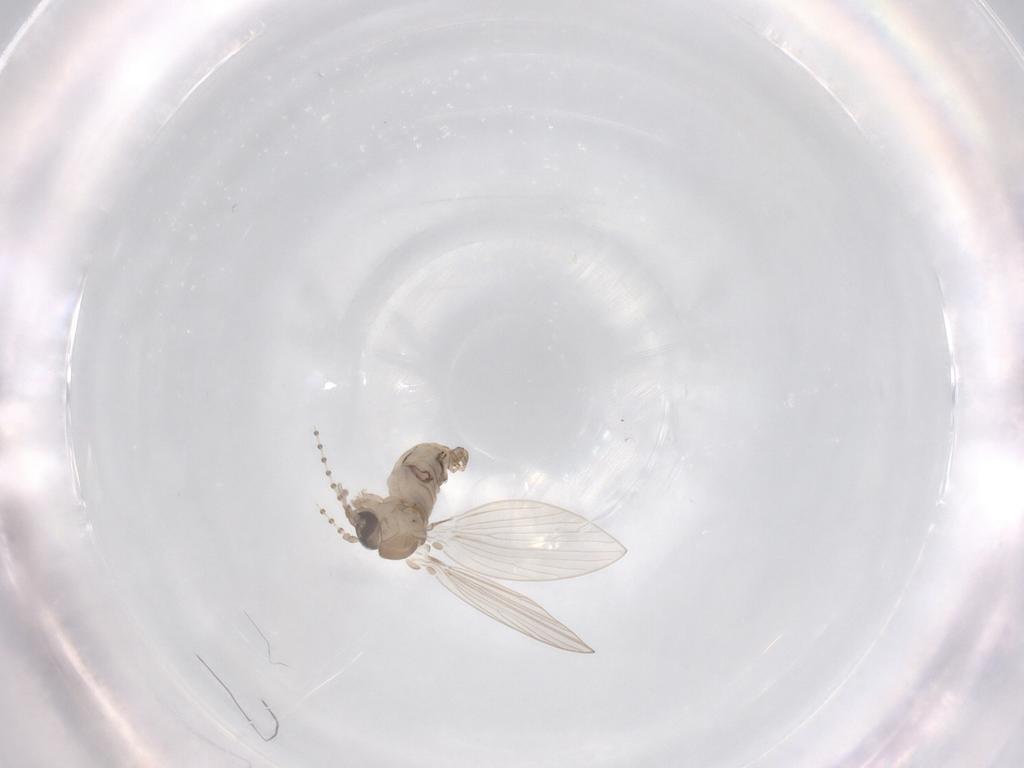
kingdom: Animalia
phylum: Arthropoda
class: Insecta
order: Diptera
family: Psychodidae
